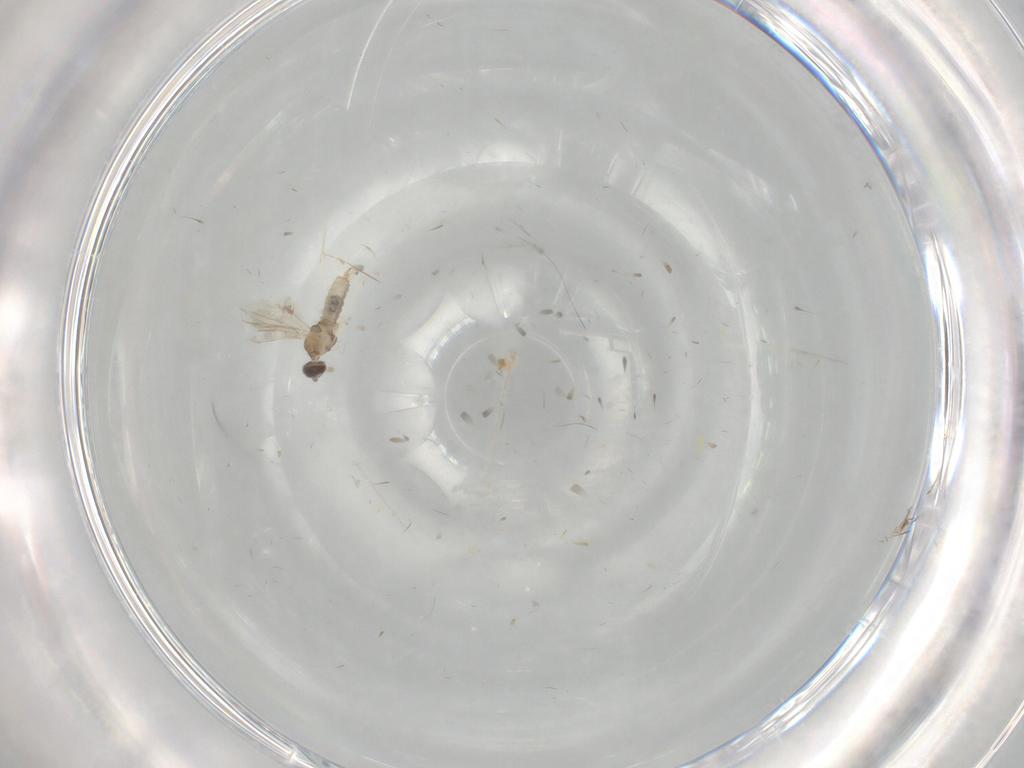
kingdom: Animalia
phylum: Arthropoda
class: Insecta
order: Diptera
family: Cecidomyiidae
